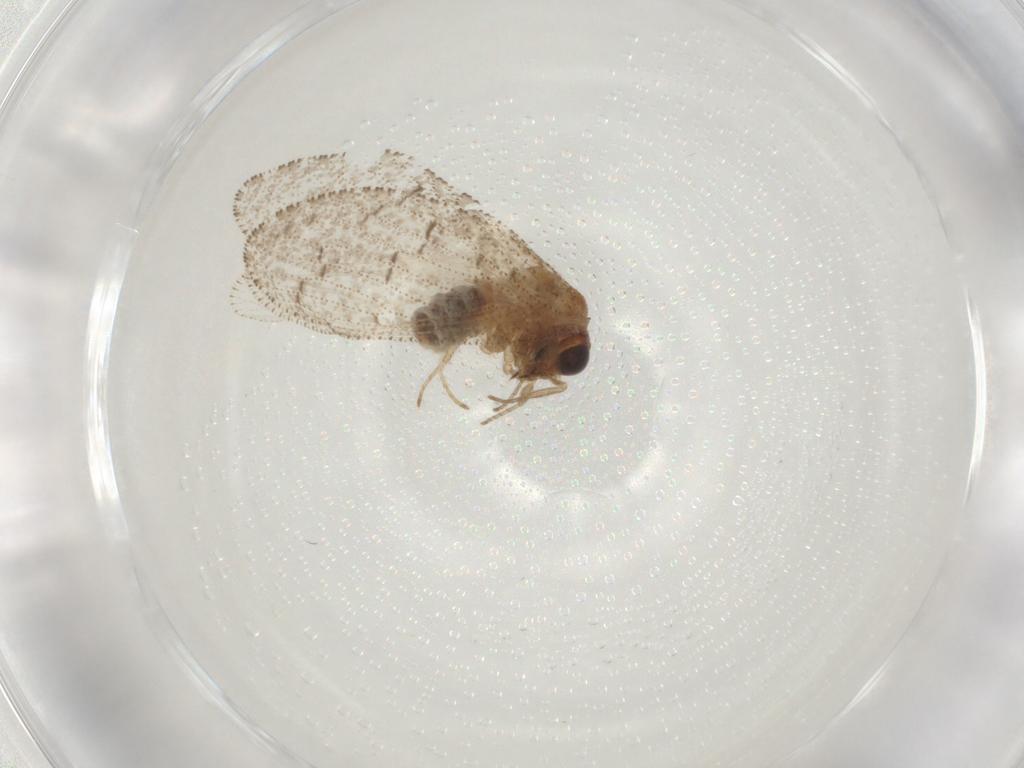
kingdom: Animalia
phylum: Arthropoda
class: Insecta
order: Neuroptera
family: Hemerobiidae
